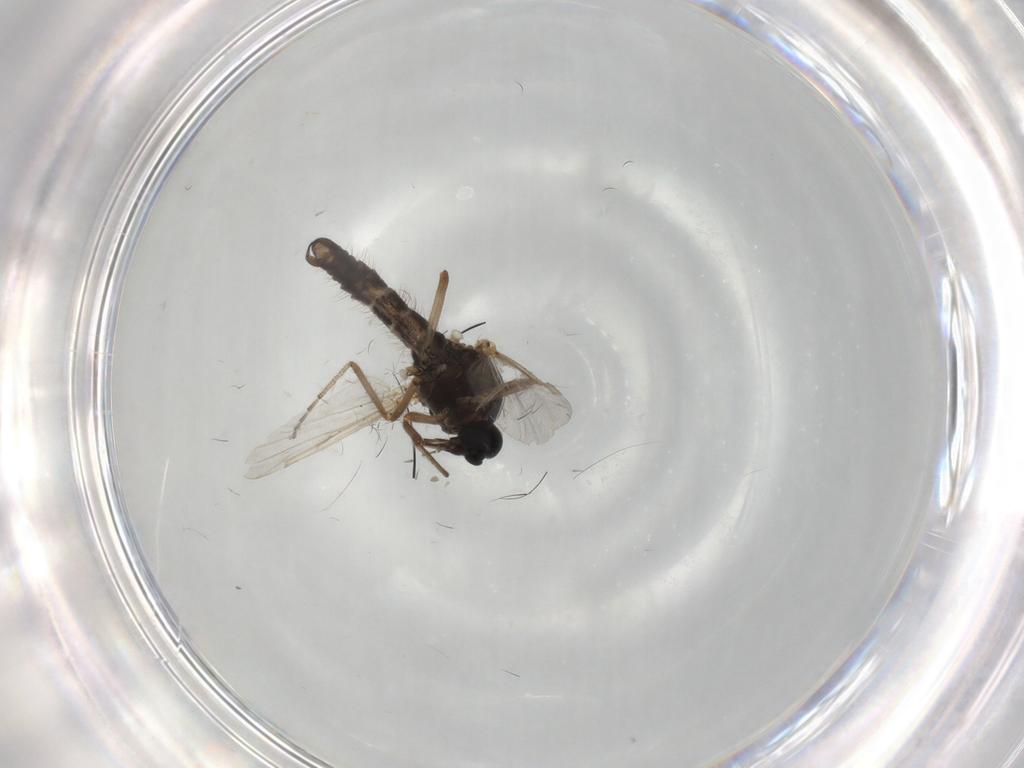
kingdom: Animalia
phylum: Arthropoda
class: Insecta
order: Diptera
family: Ceratopogonidae
